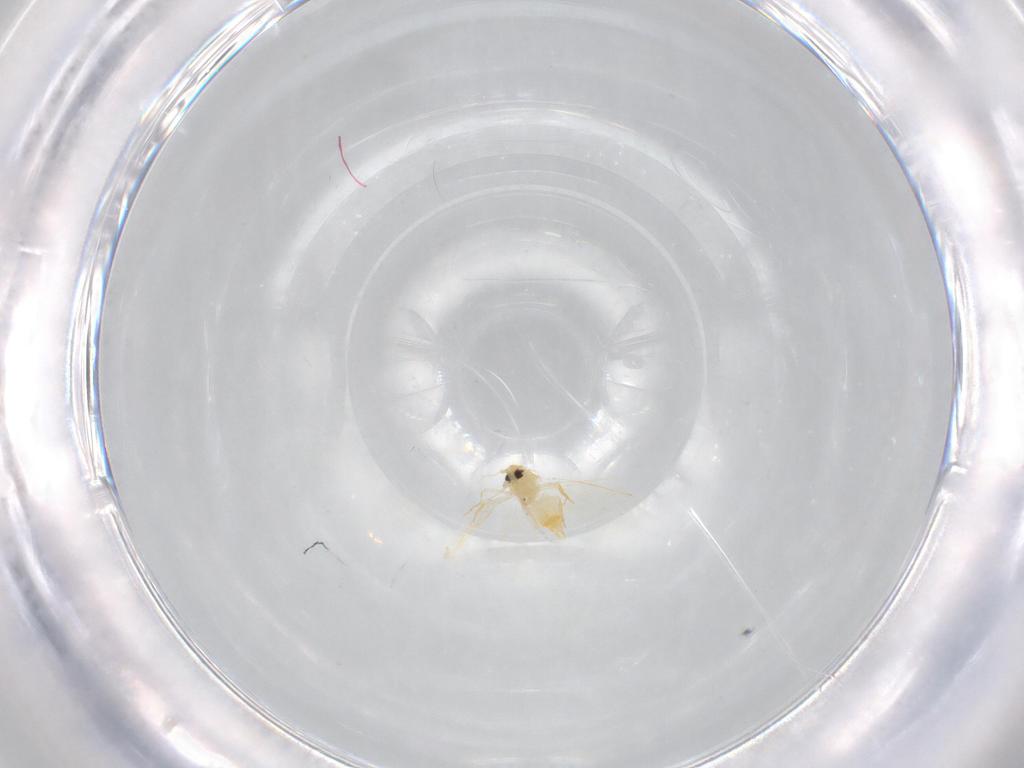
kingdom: Animalia
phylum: Arthropoda
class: Insecta
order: Hemiptera
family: Aleyrodidae
